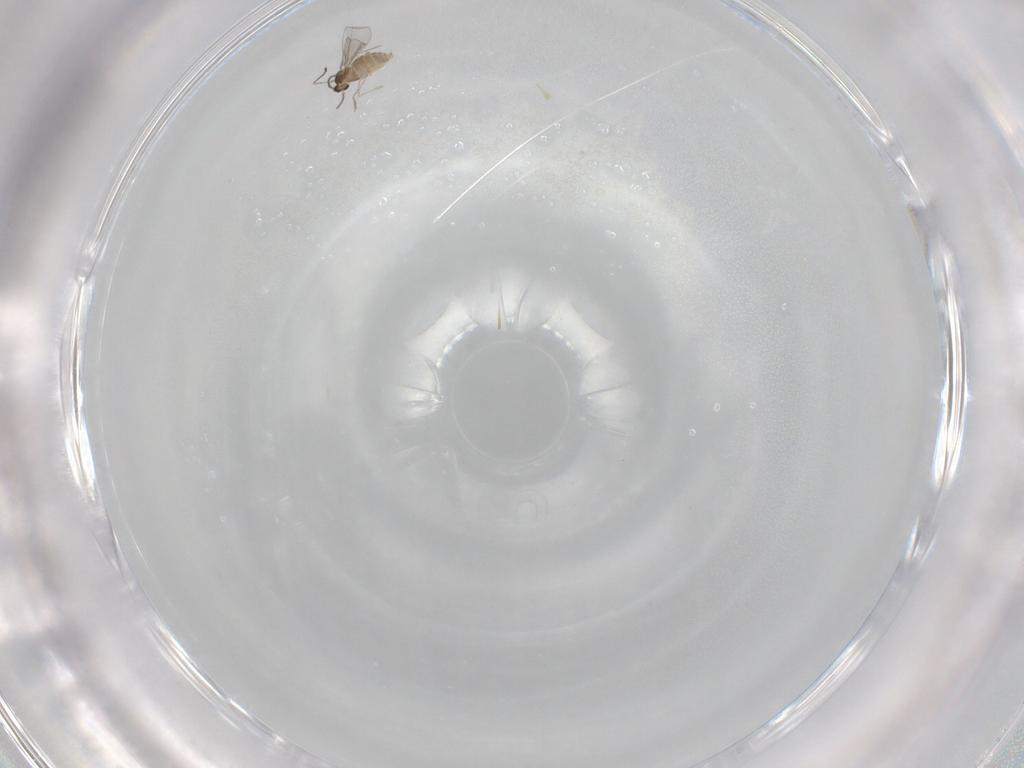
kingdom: Animalia
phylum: Arthropoda
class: Insecta
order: Diptera
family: Cecidomyiidae
